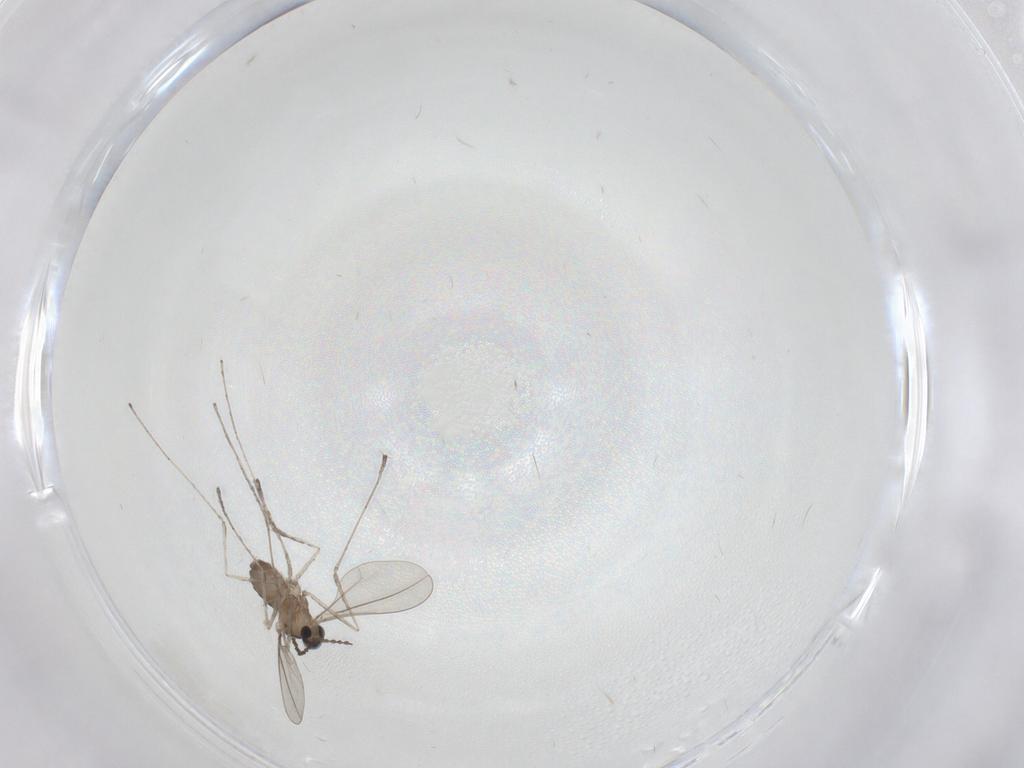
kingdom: Animalia
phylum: Arthropoda
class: Insecta
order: Diptera
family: Cecidomyiidae
